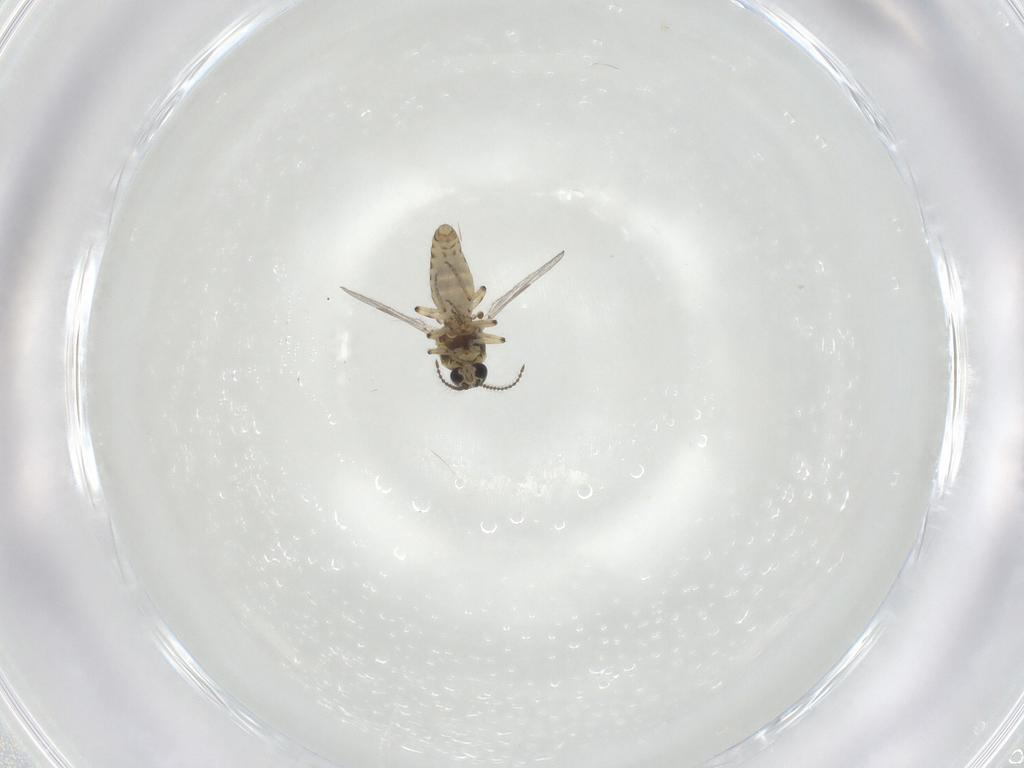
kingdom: Animalia
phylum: Arthropoda
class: Insecta
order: Diptera
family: Ceratopogonidae
